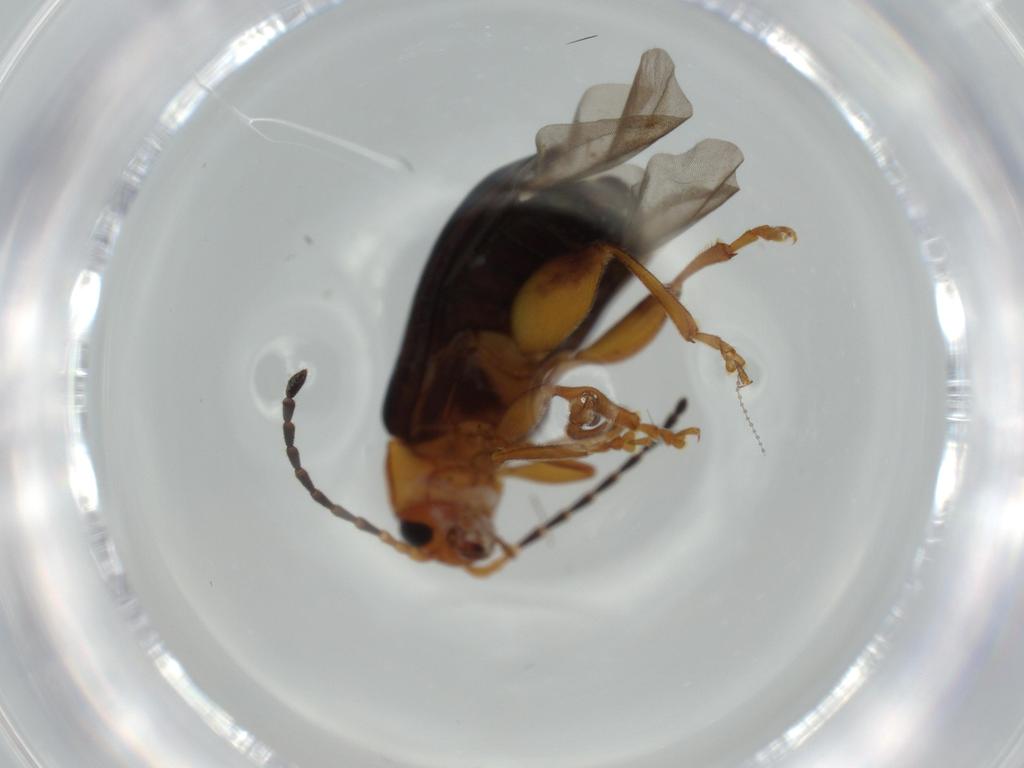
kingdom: Animalia
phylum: Arthropoda
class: Insecta
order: Coleoptera
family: Chrysomelidae
